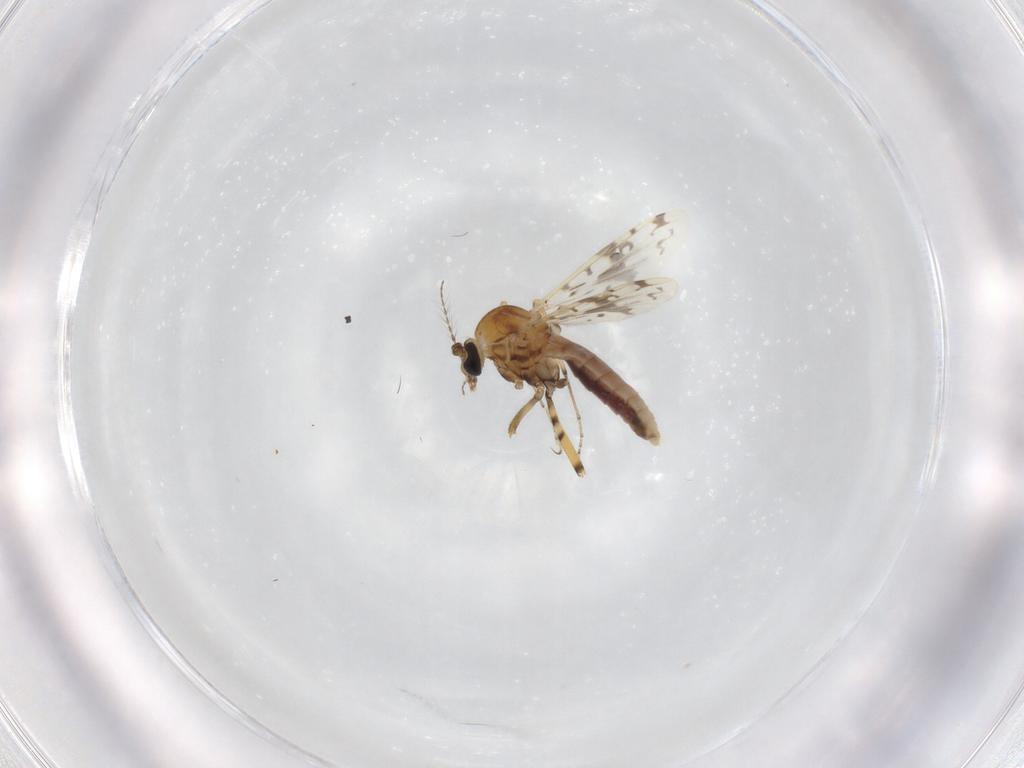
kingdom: Animalia
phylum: Arthropoda
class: Insecta
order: Diptera
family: Ceratopogonidae
